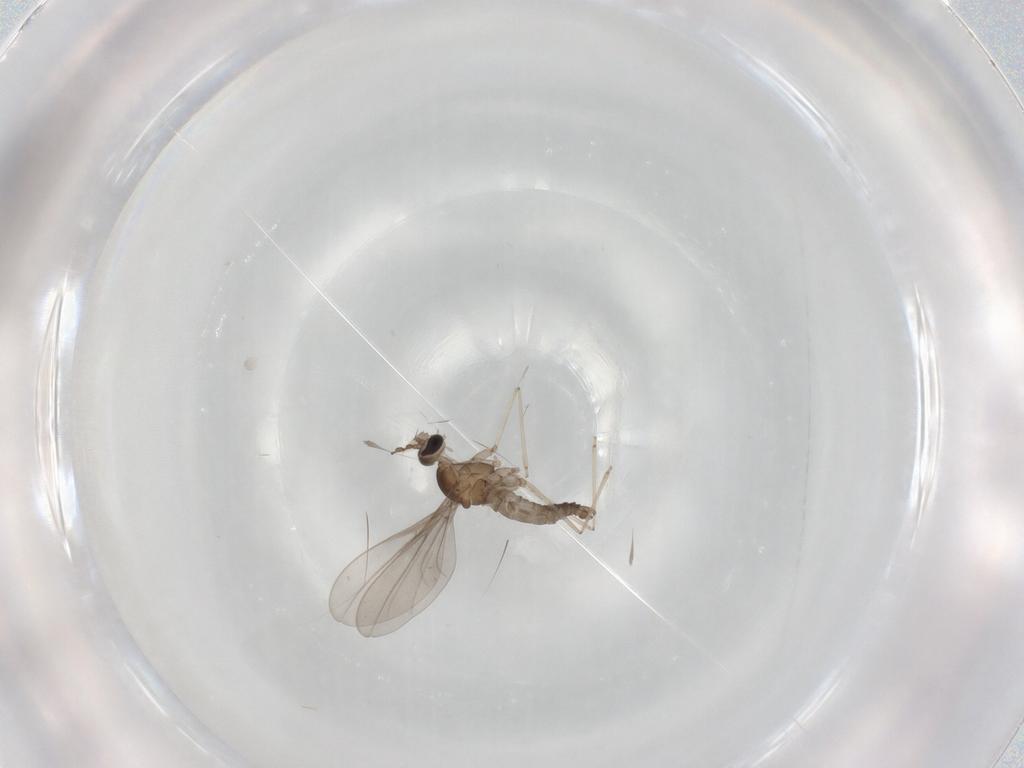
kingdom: Animalia
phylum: Arthropoda
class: Insecta
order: Diptera
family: Cecidomyiidae
